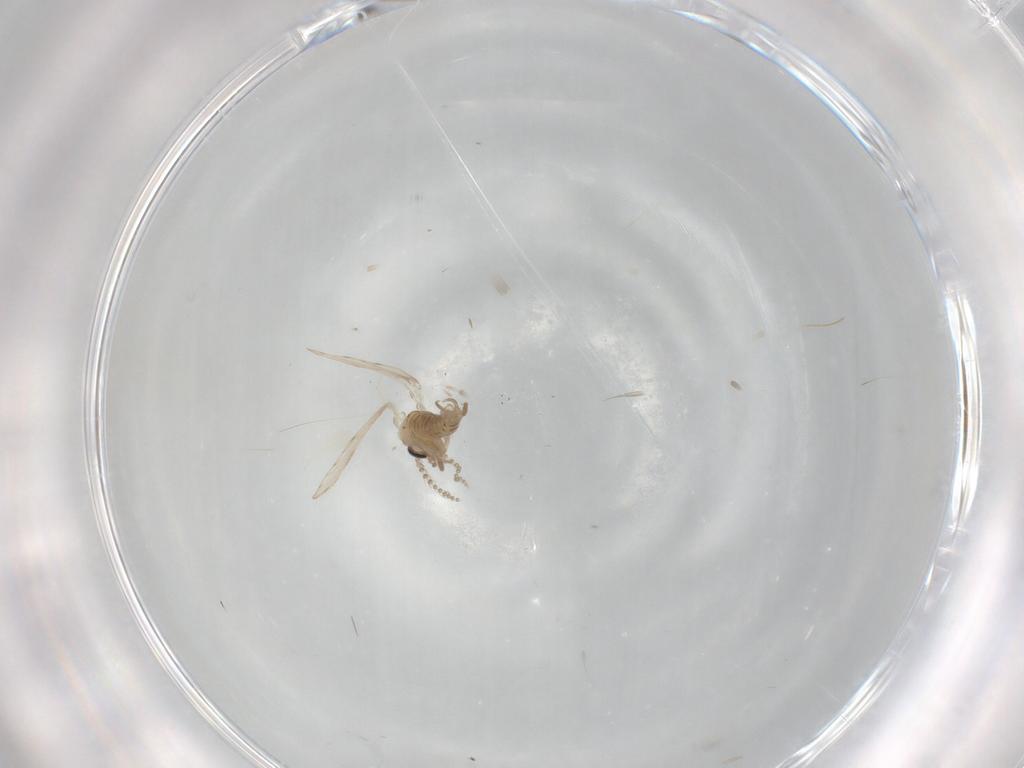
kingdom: Animalia
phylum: Arthropoda
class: Insecta
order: Diptera
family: Psychodidae
